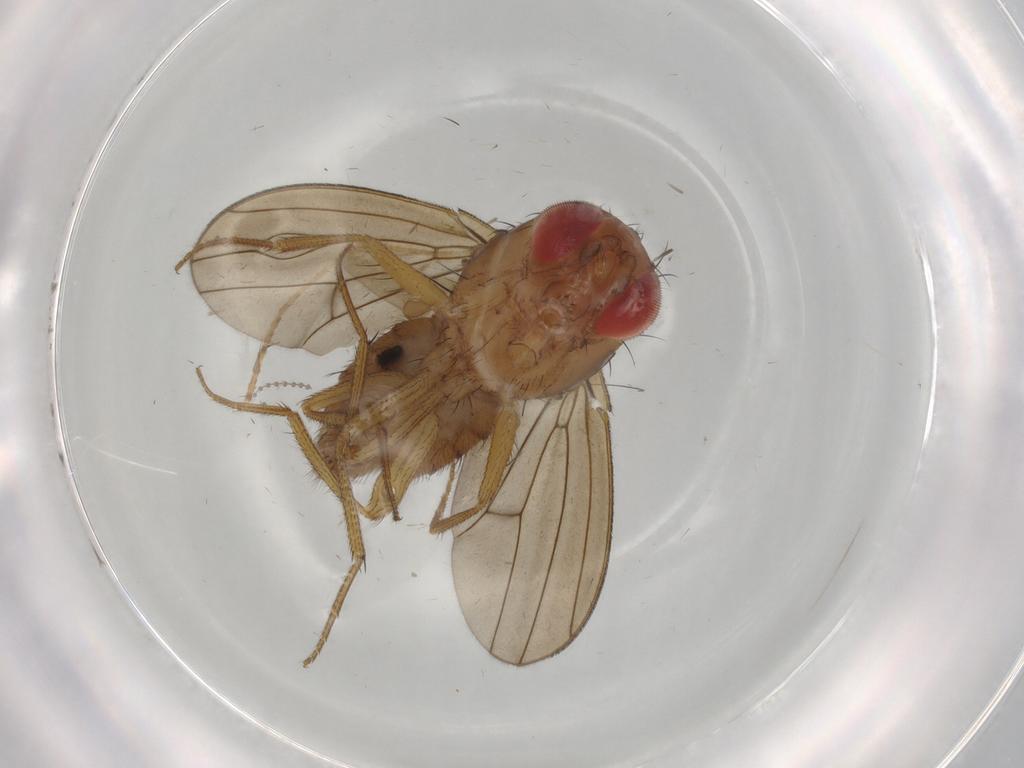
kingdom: Animalia
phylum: Arthropoda
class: Insecta
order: Diptera
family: Drosophilidae
